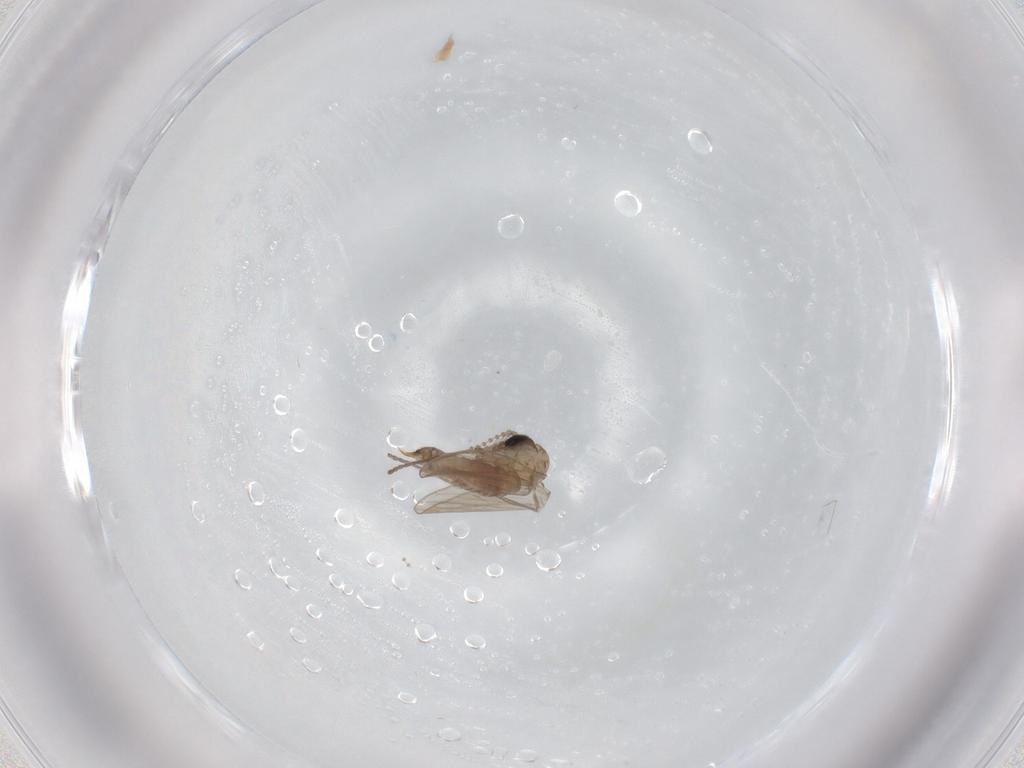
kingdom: Animalia
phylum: Arthropoda
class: Insecta
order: Diptera
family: Psychodidae
